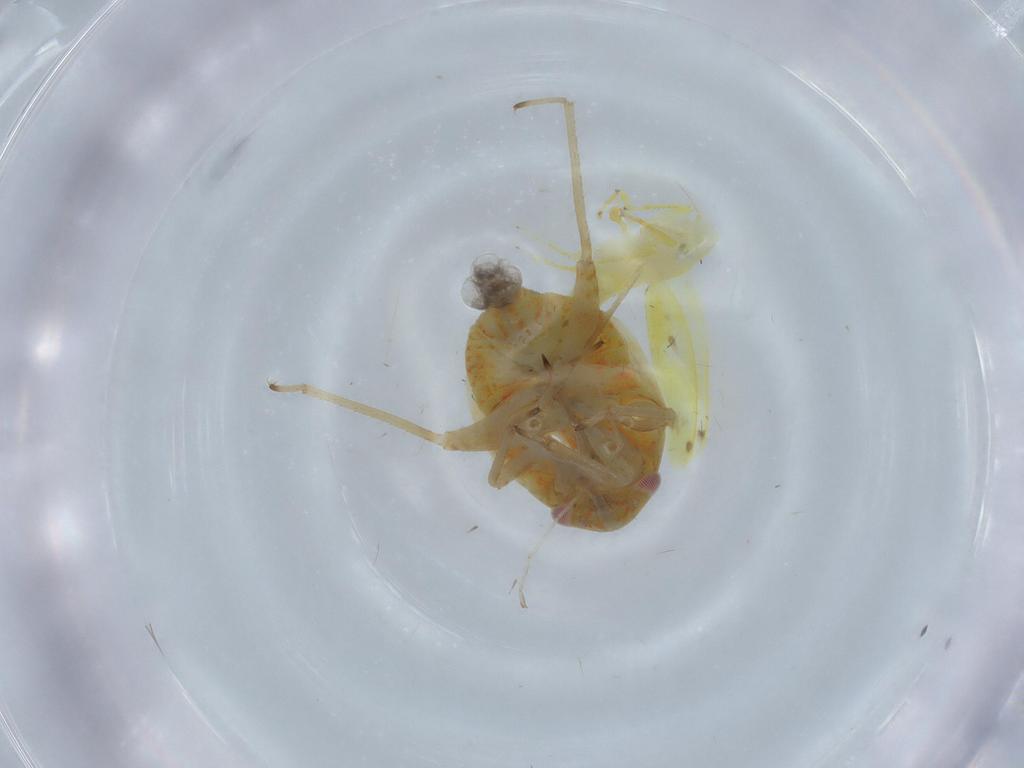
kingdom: Animalia
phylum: Arthropoda
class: Insecta
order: Hemiptera
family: Cicadellidae
